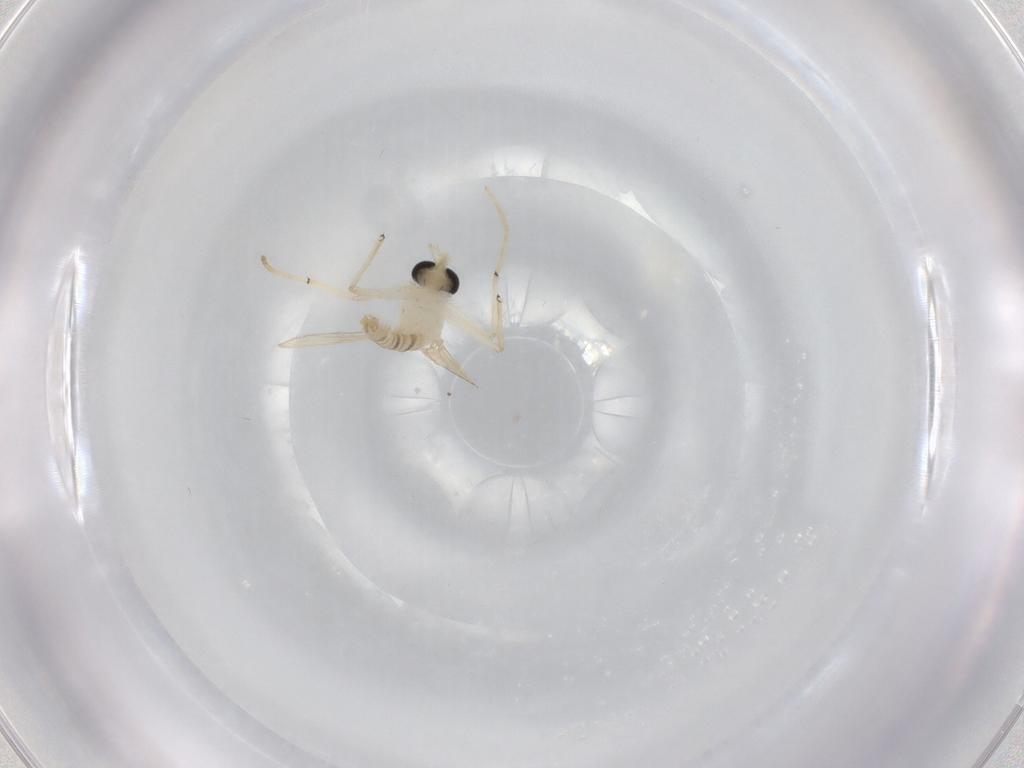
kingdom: Animalia
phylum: Arthropoda
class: Insecta
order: Diptera
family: Chironomidae
